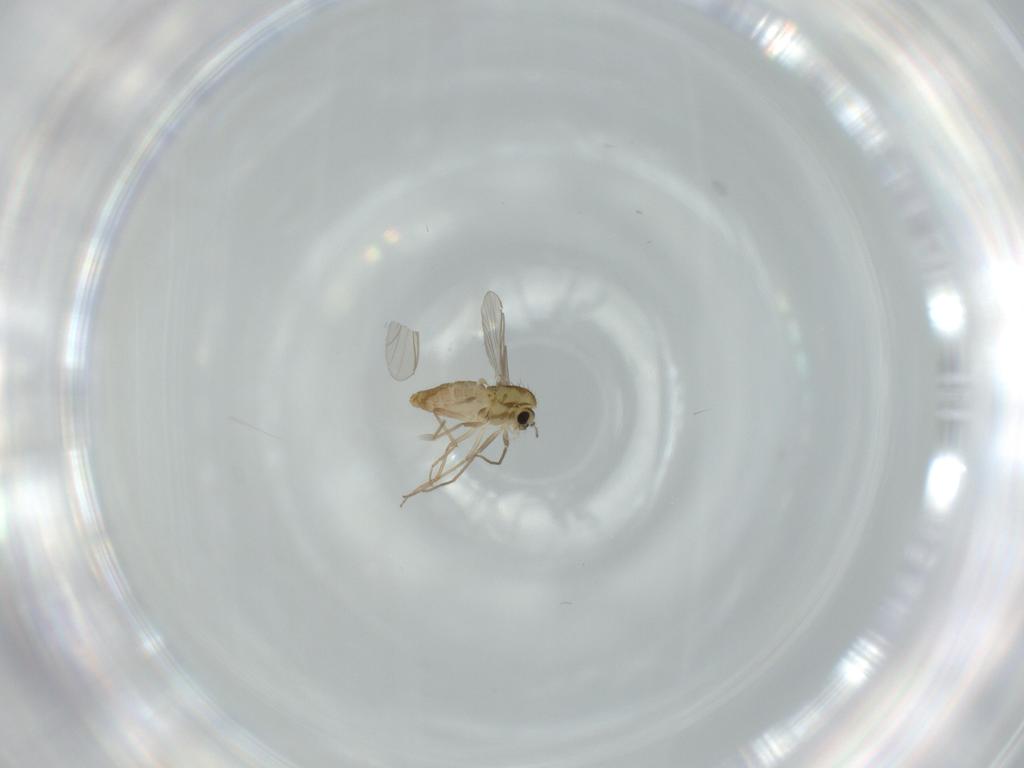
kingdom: Animalia
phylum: Arthropoda
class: Insecta
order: Diptera
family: Chironomidae
